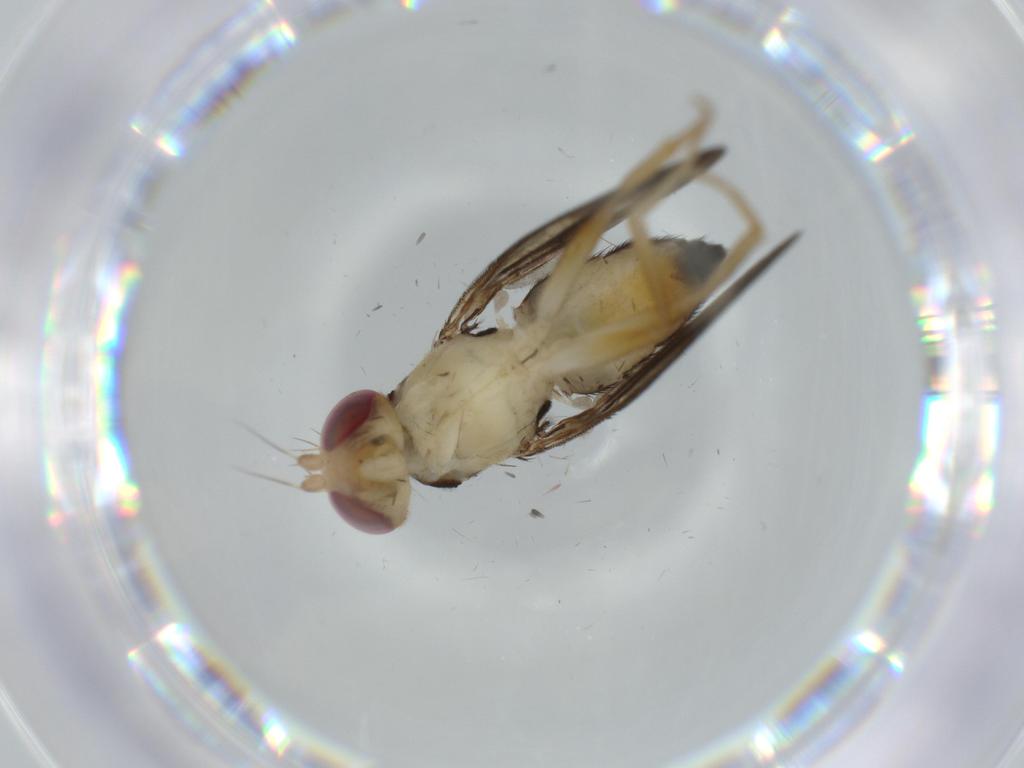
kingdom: Animalia
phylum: Arthropoda
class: Insecta
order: Diptera
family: Clusiidae
